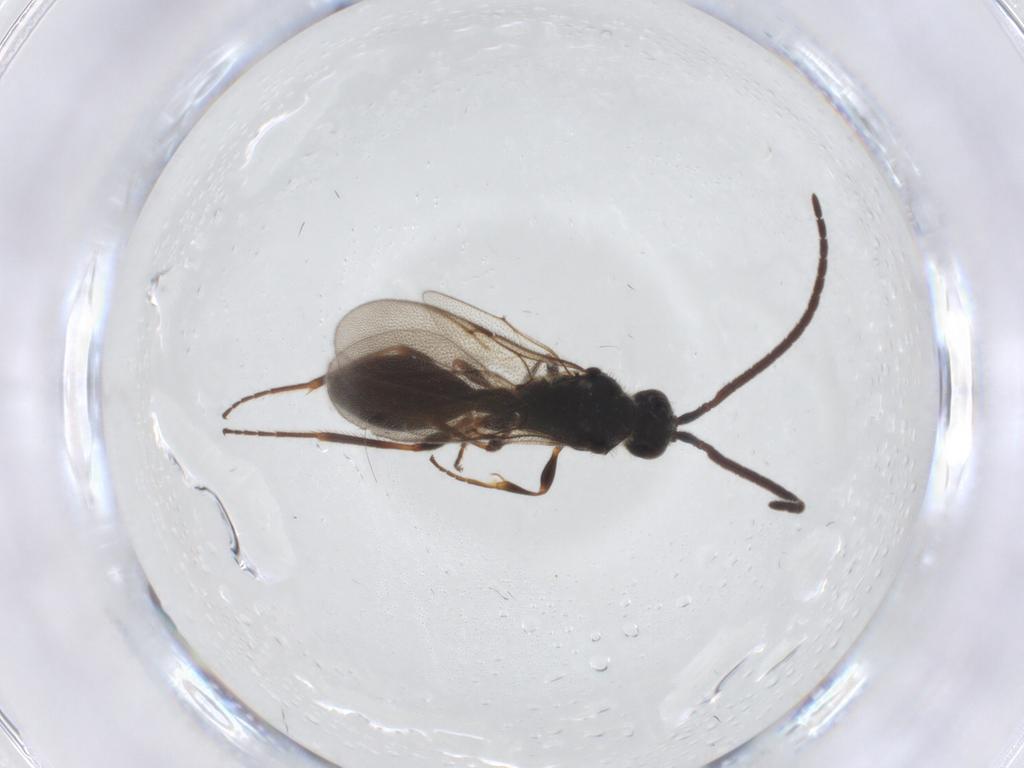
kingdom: Animalia
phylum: Arthropoda
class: Insecta
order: Hymenoptera
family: Diapriidae
